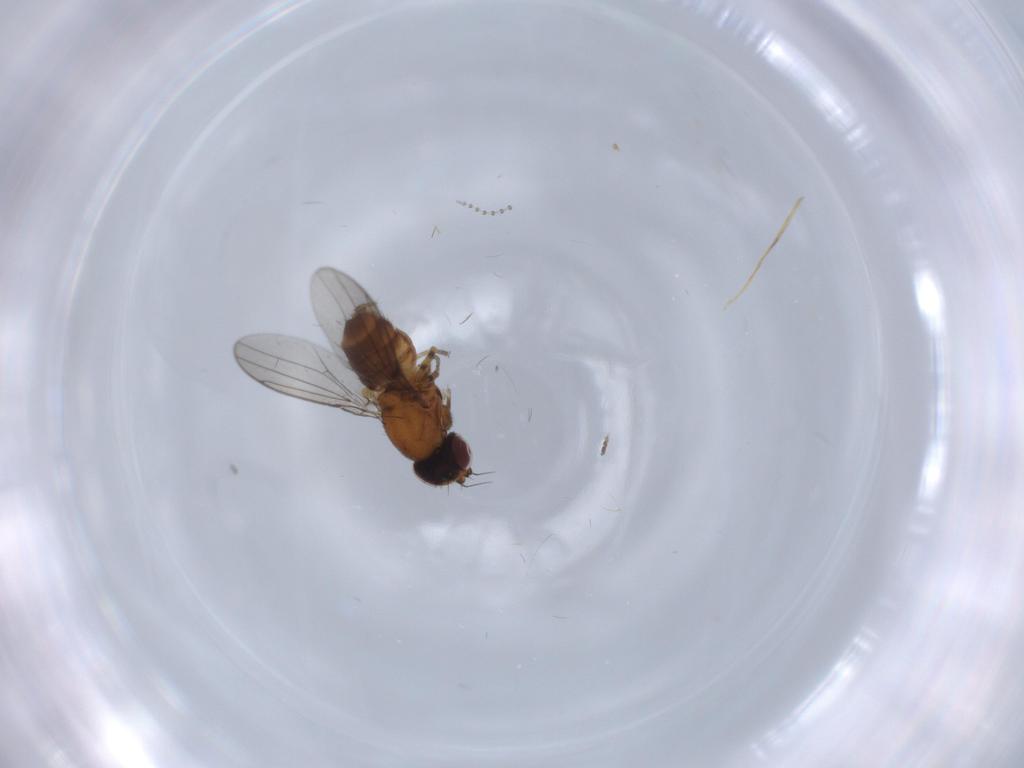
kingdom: Animalia
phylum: Arthropoda
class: Insecta
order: Diptera
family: Chloropidae
